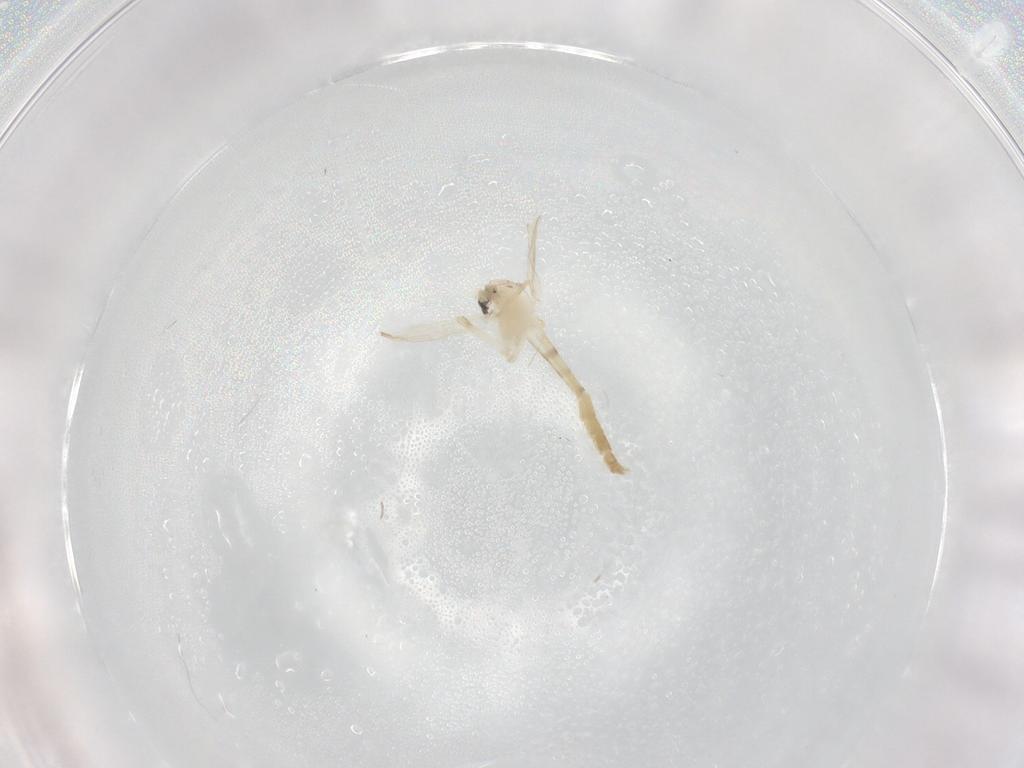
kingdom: Animalia
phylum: Arthropoda
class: Insecta
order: Diptera
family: Chironomidae
